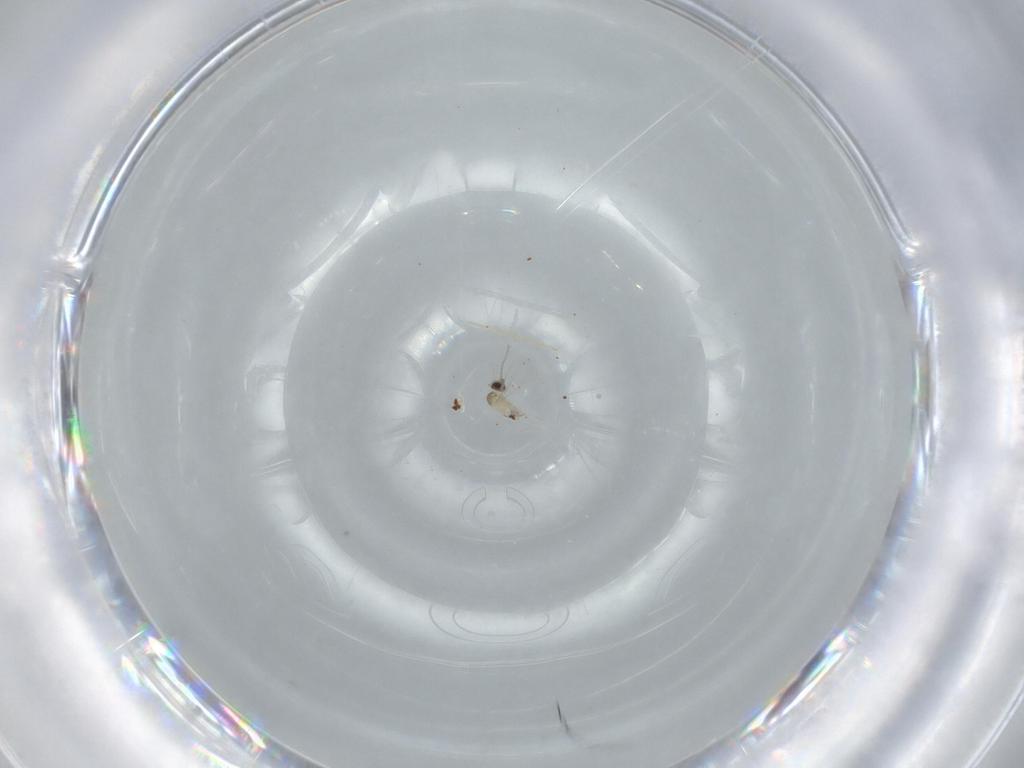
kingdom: Animalia
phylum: Arthropoda
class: Insecta
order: Diptera
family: Cecidomyiidae
